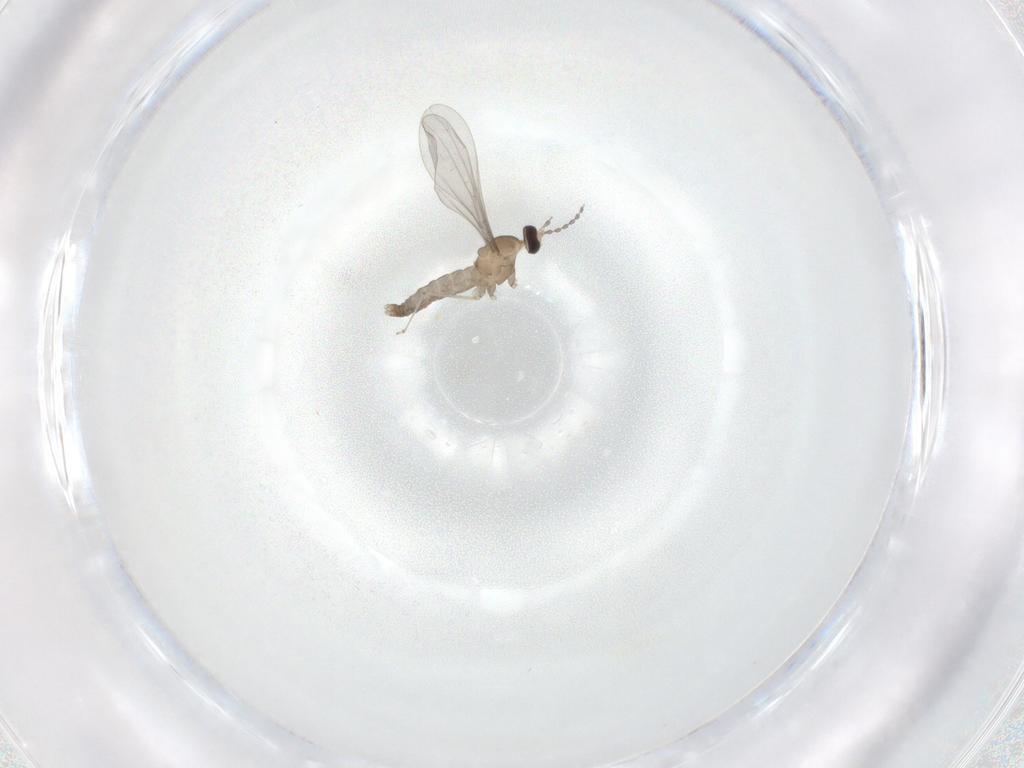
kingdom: Animalia
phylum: Arthropoda
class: Insecta
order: Diptera
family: Cecidomyiidae
